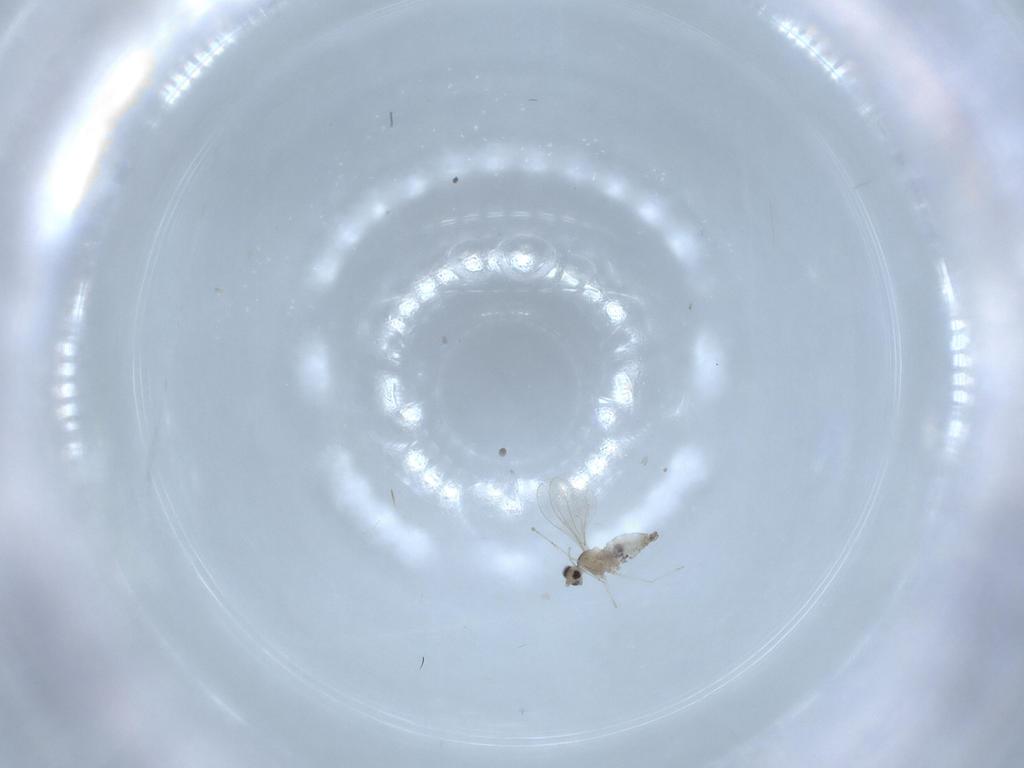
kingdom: Animalia
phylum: Arthropoda
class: Insecta
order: Diptera
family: Cecidomyiidae
